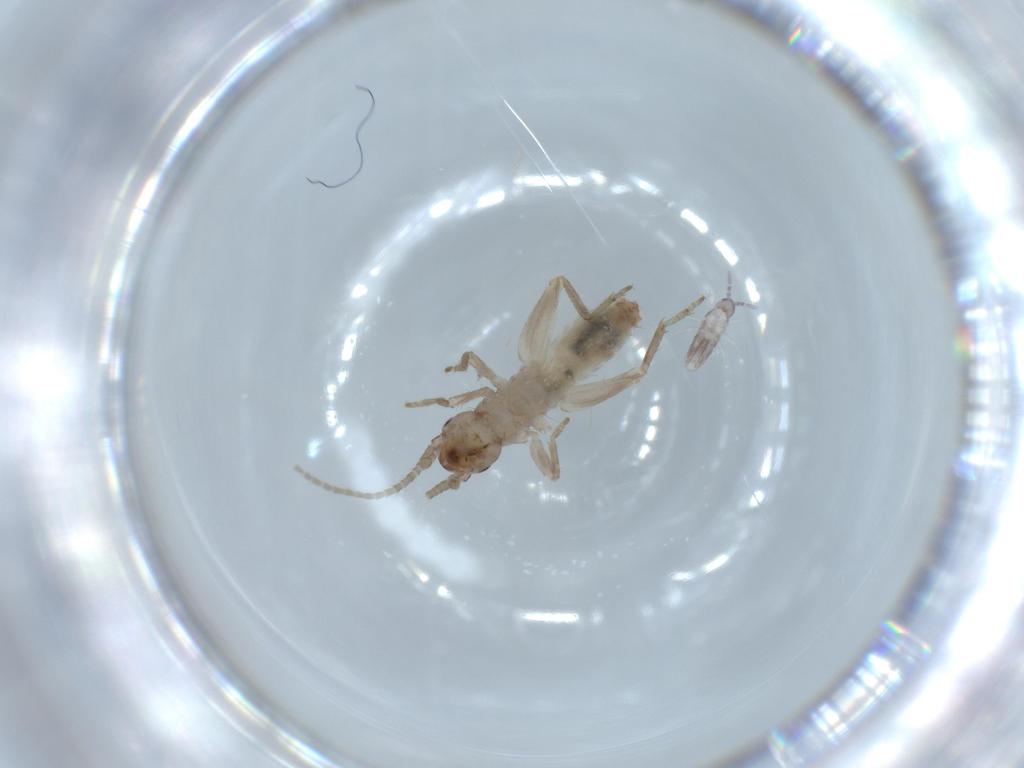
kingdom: Animalia
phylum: Arthropoda
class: Insecta
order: Orthoptera
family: Mogoplistidae
